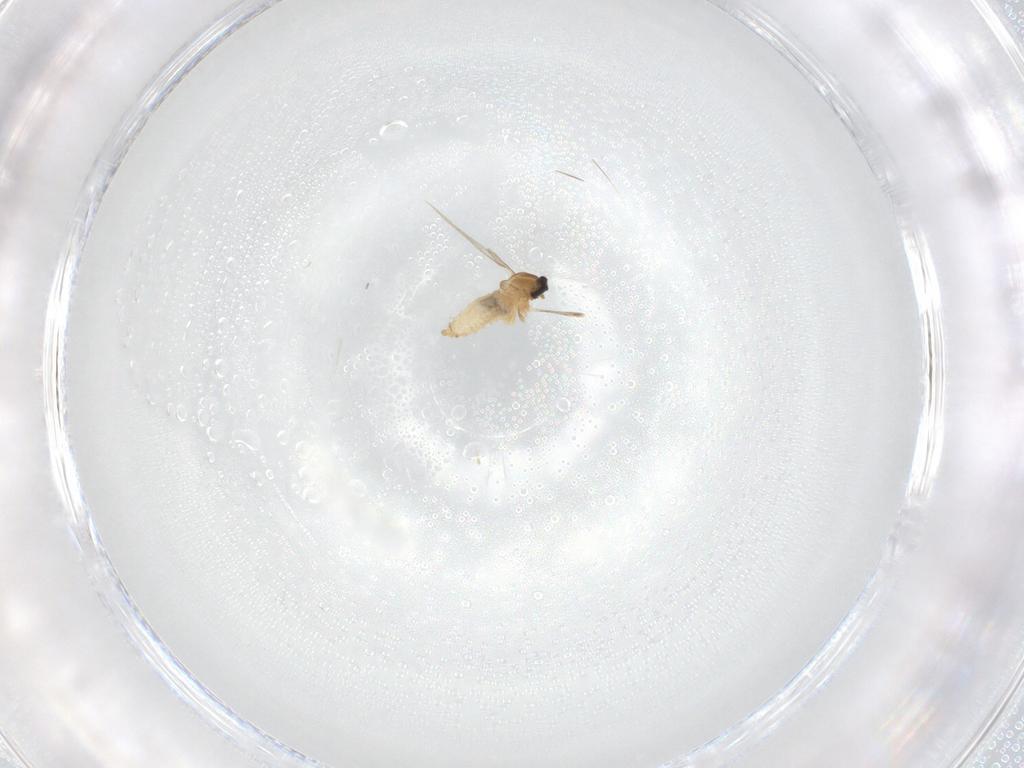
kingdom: Animalia
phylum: Arthropoda
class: Insecta
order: Diptera
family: Cecidomyiidae
